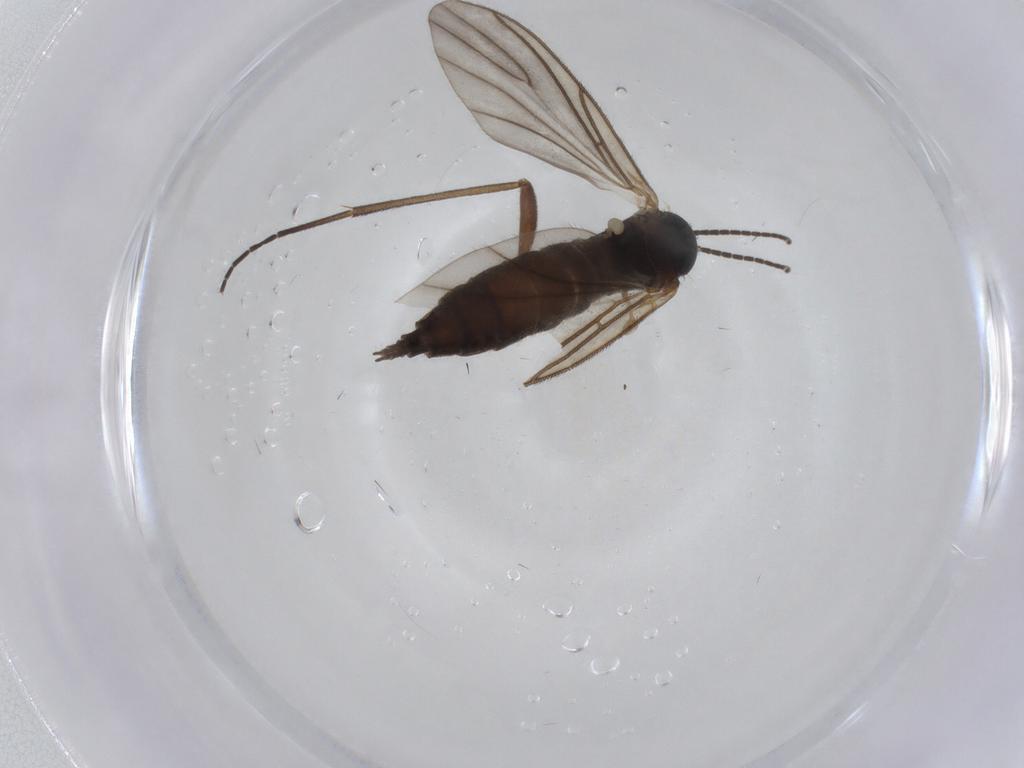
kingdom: Animalia
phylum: Arthropoda
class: Insecta
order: Diptera
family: Sciaridae
